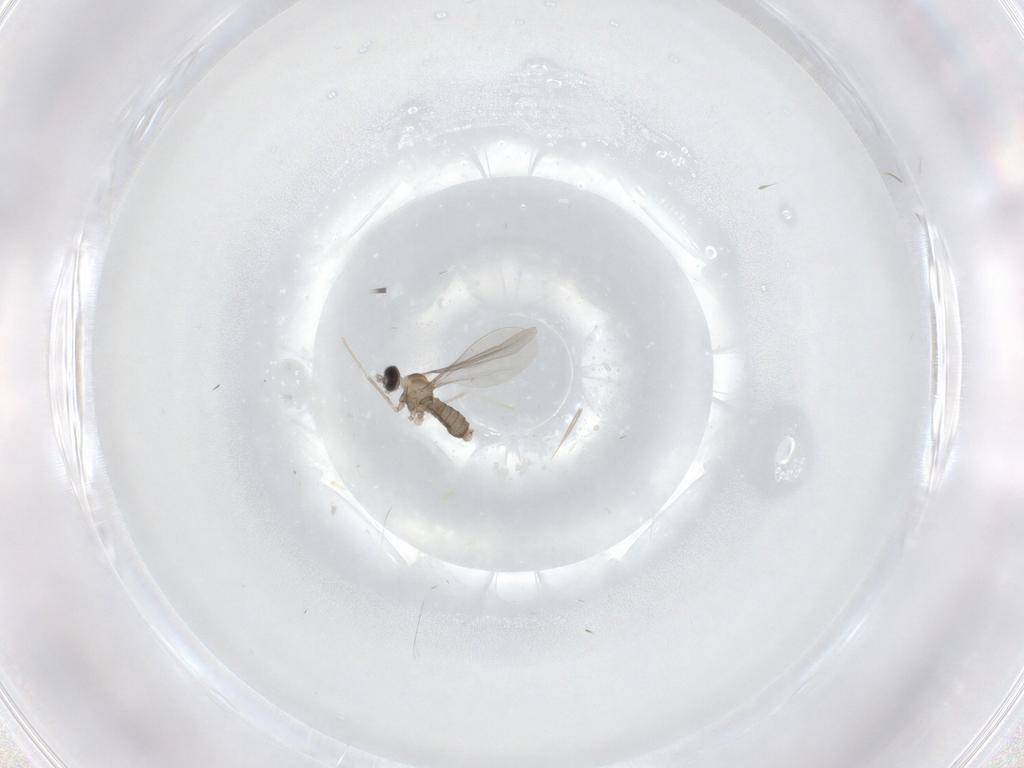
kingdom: Animalia
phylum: Arthropoda
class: Insecta
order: Diptera
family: Cecidomyiidae
